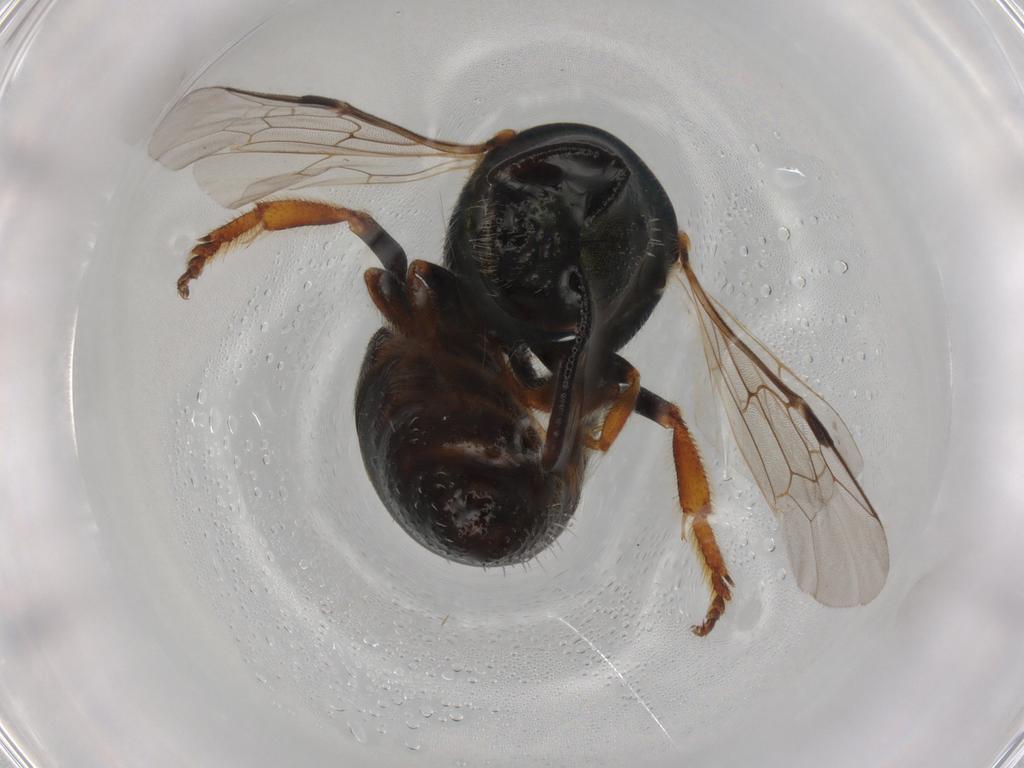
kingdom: Animalia
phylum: Arthropoda
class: Insecta
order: Hymenoptera
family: Halictidae
